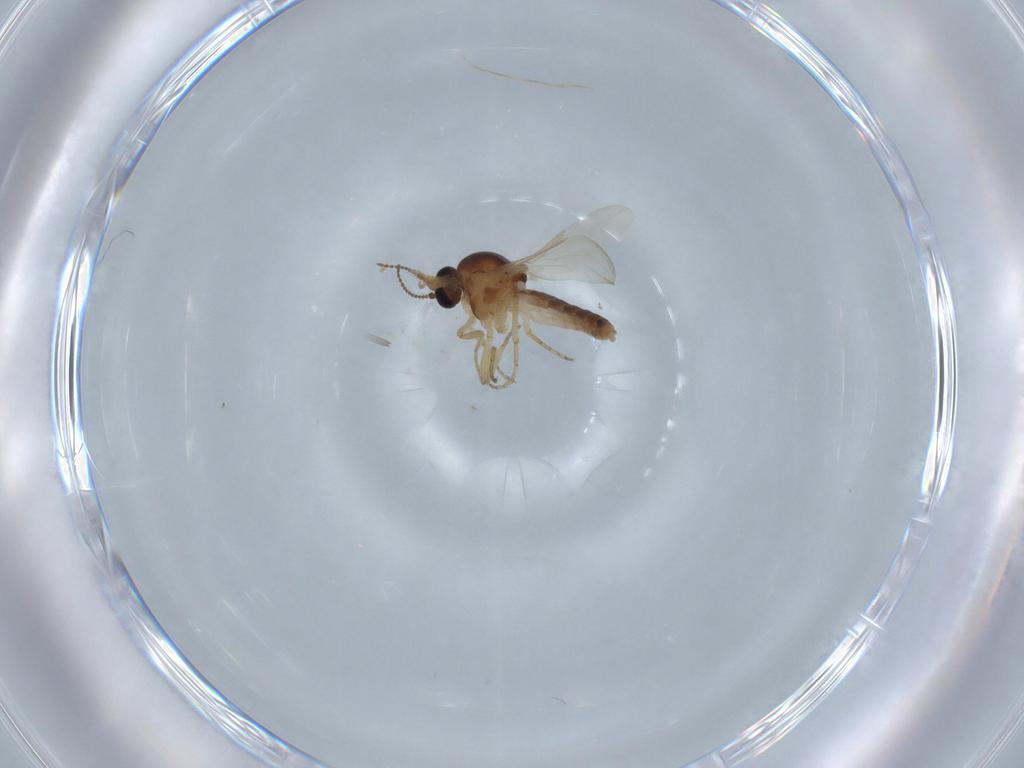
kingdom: Animalia
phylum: Arthropoda
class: Insecta
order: Diptera
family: Ceratopogonidae
